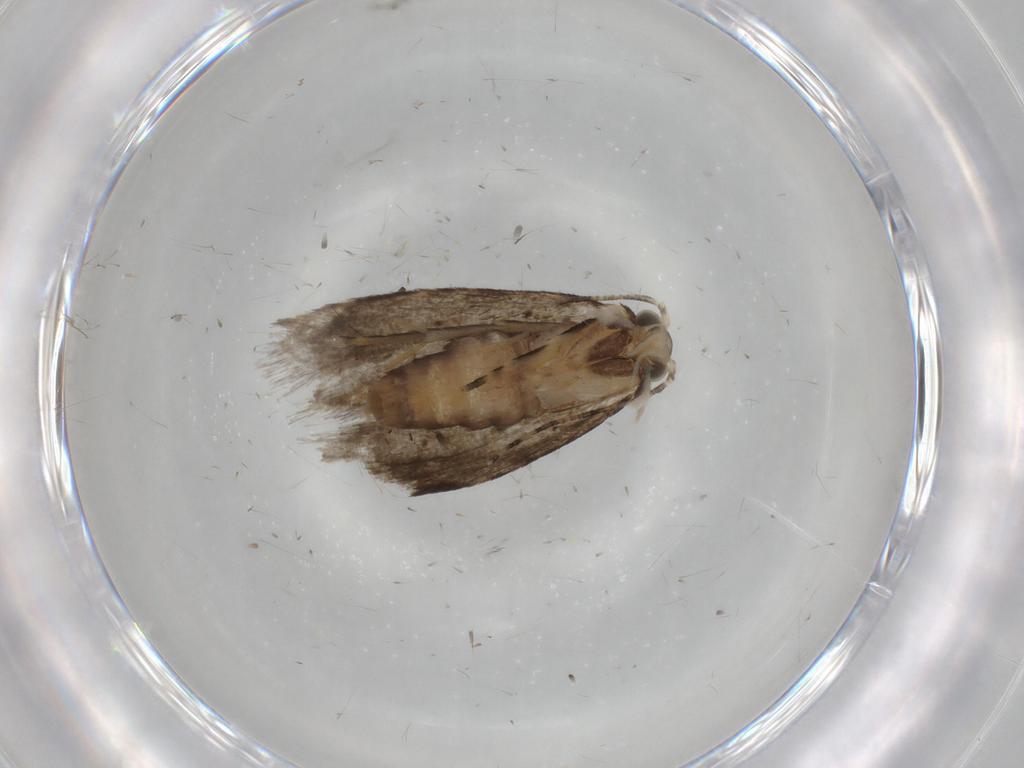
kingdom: Animalia
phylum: Arthropoda
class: Insecta
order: Lepidoptera
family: Tineidae
